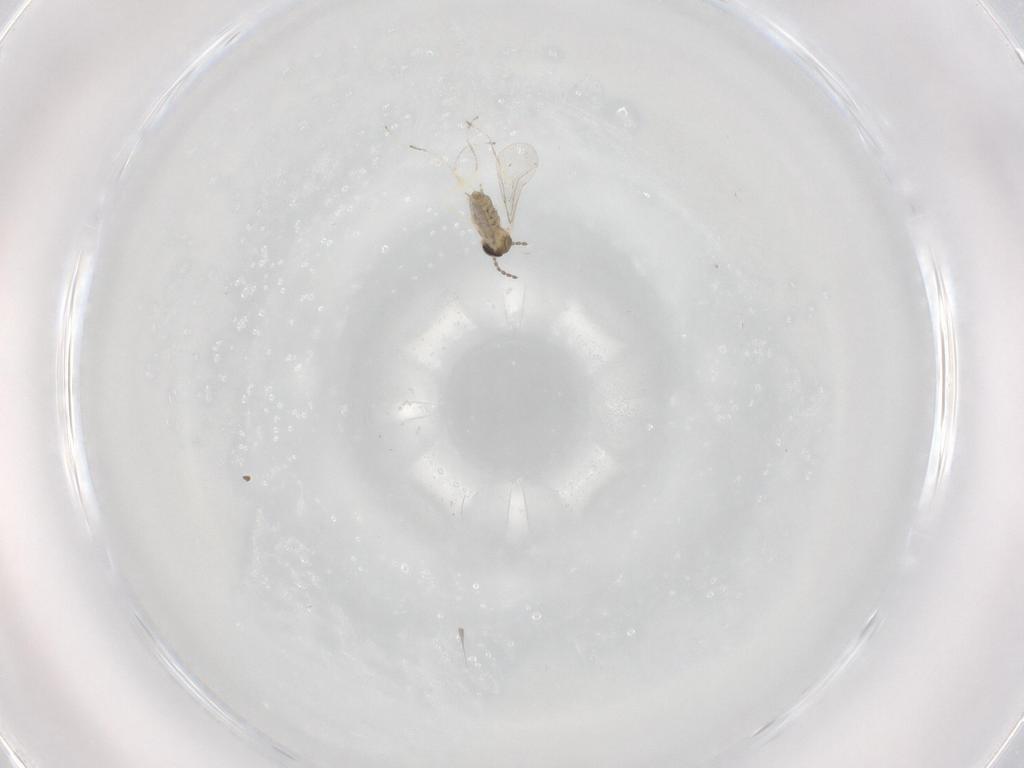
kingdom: Animalia
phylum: Arthropoda
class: Insecta
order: Diptera
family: Cecidomyiidae
